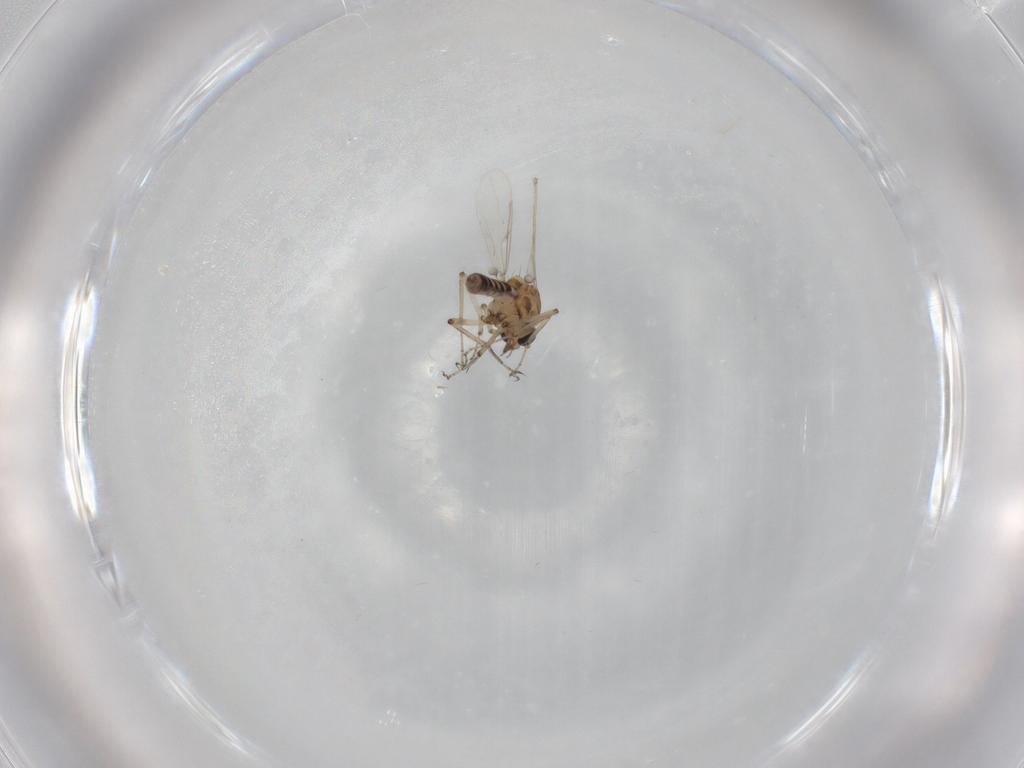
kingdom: Animalia
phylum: Arthropoda
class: Insecta
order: Diptera
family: Ceratopogonidae
